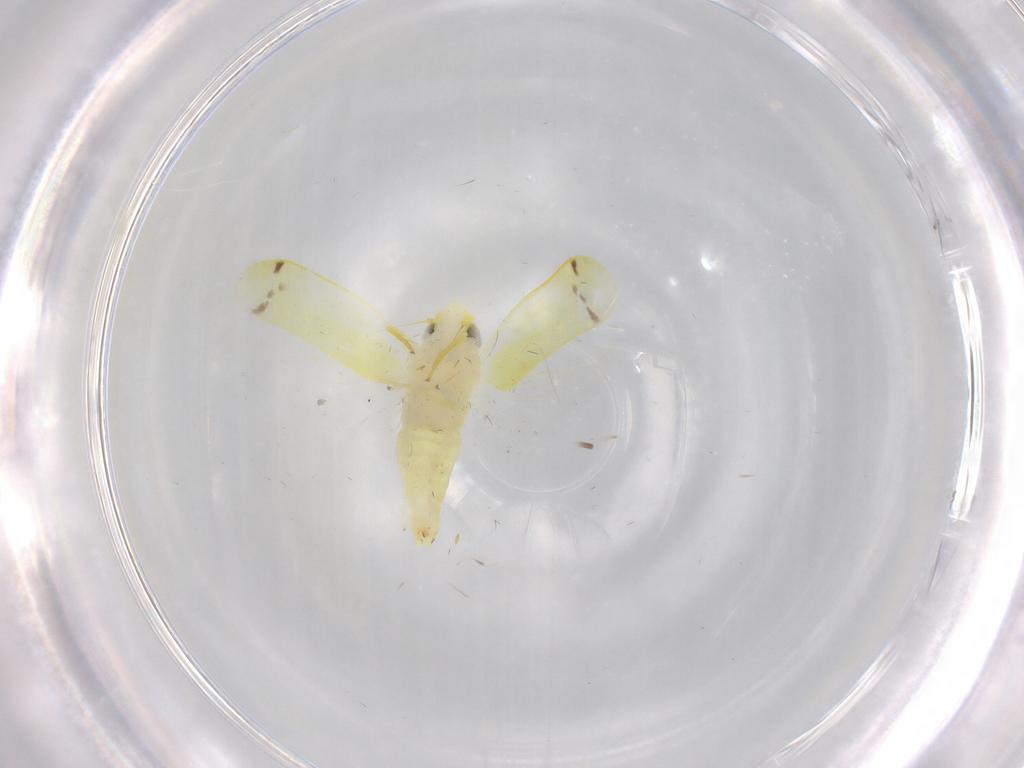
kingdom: Animalia
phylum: Arthropoda
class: Insecta
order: Hemiptera
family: Cicadellidae
